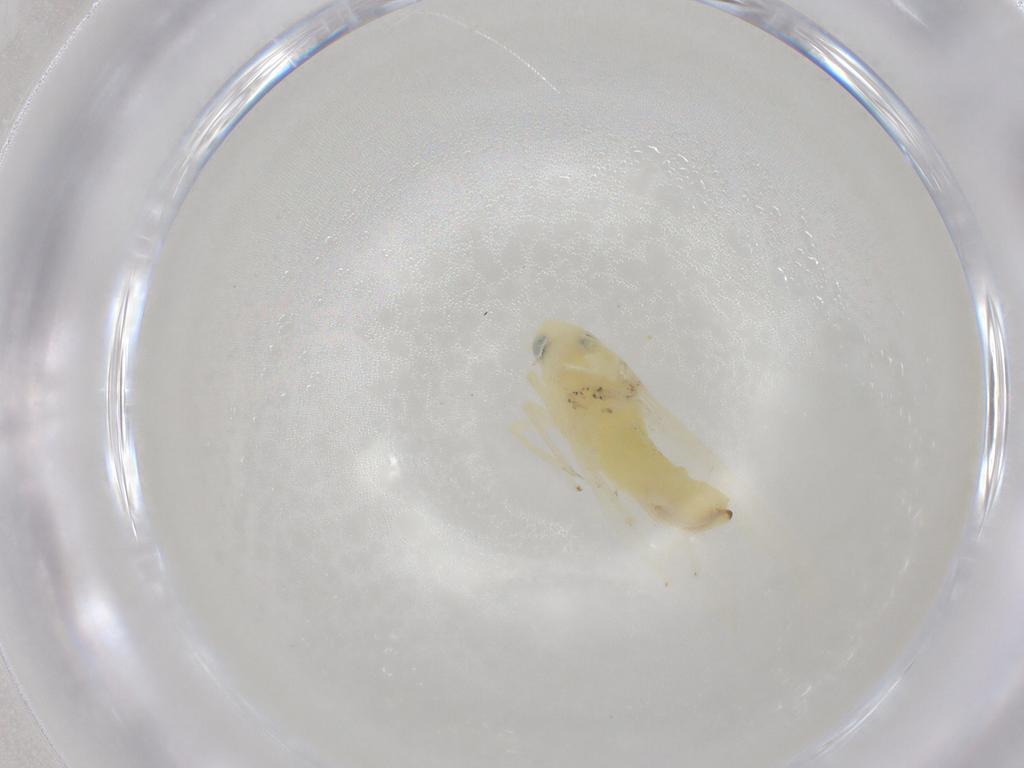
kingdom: Animalia
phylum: Arthropoda
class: Insecta
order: Hemiptera
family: Cicadellidae
